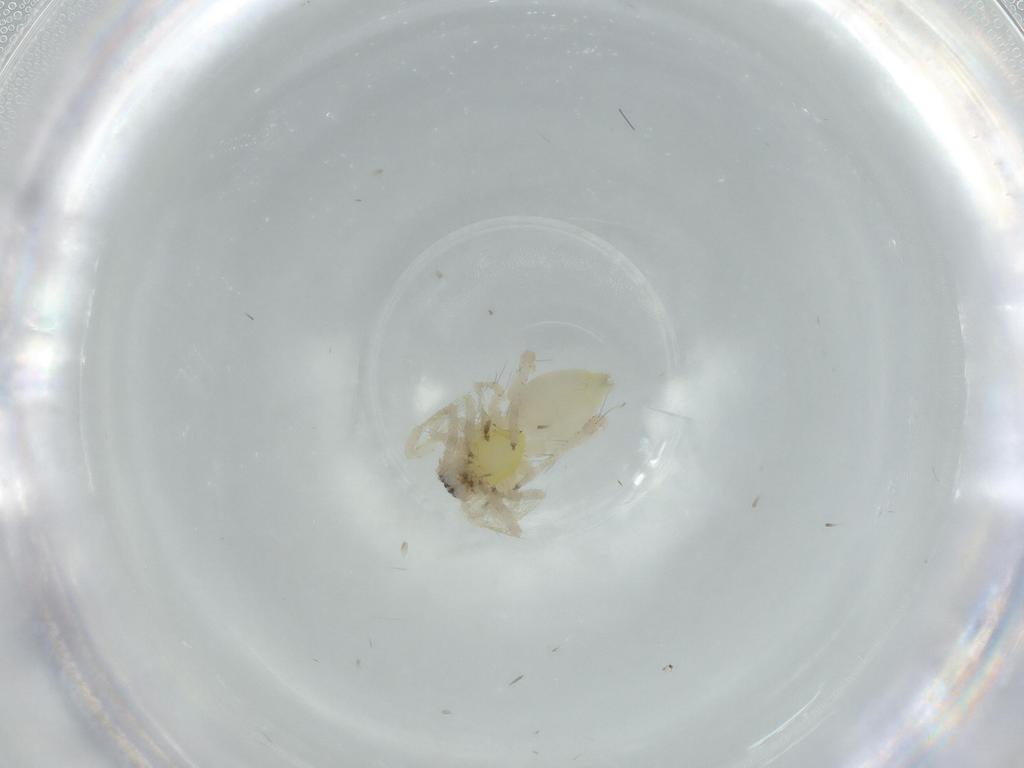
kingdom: Animalia
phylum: Arthropoda
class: Arachnida
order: Araneae
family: Anyphaenidae
